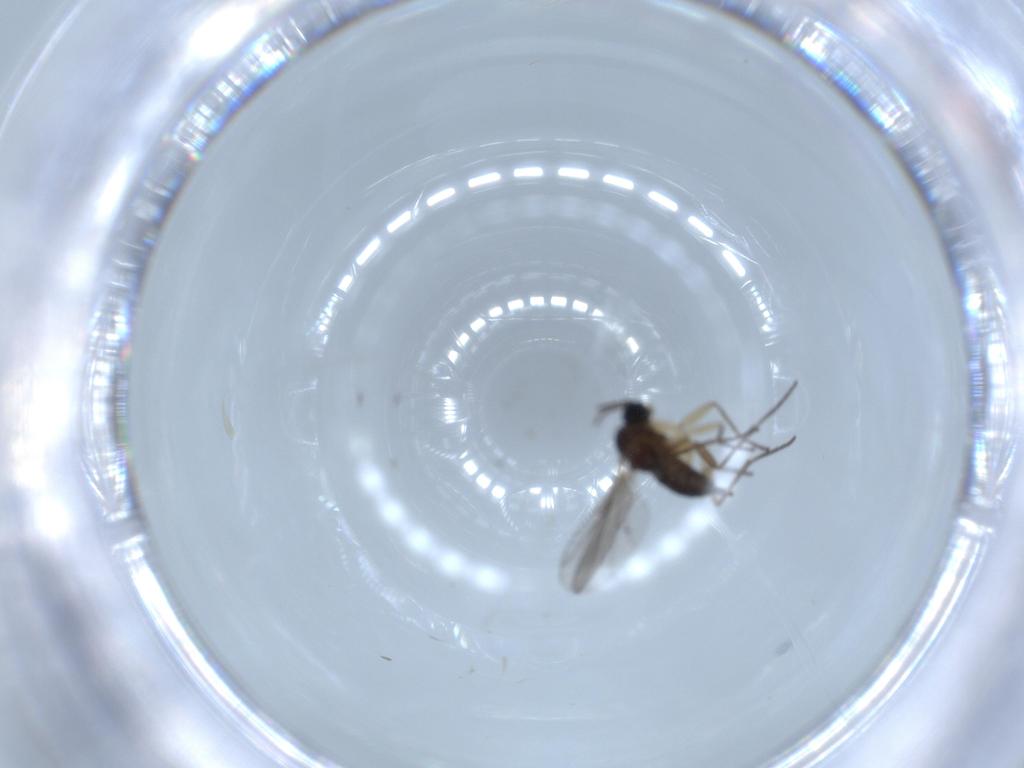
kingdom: Animalia
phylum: Arthropoda
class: Insecta
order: Diptera
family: Sciaridae
